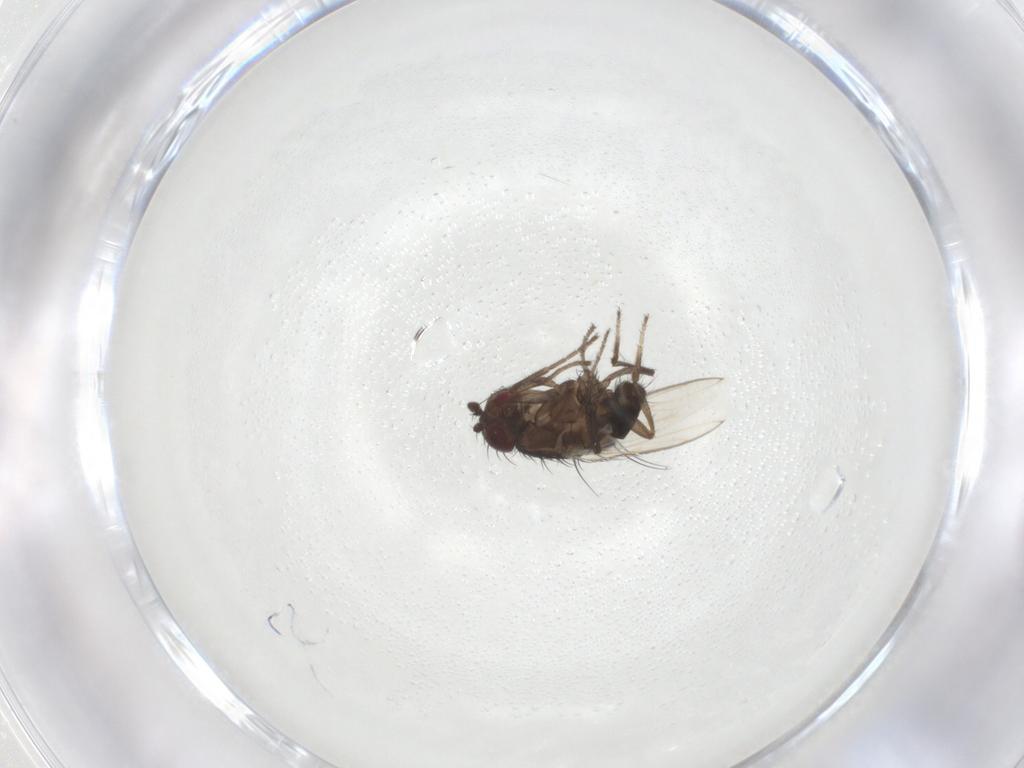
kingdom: Animalia
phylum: Arthropoda
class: Insecta
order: Diptera
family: Sphaeroceridae
